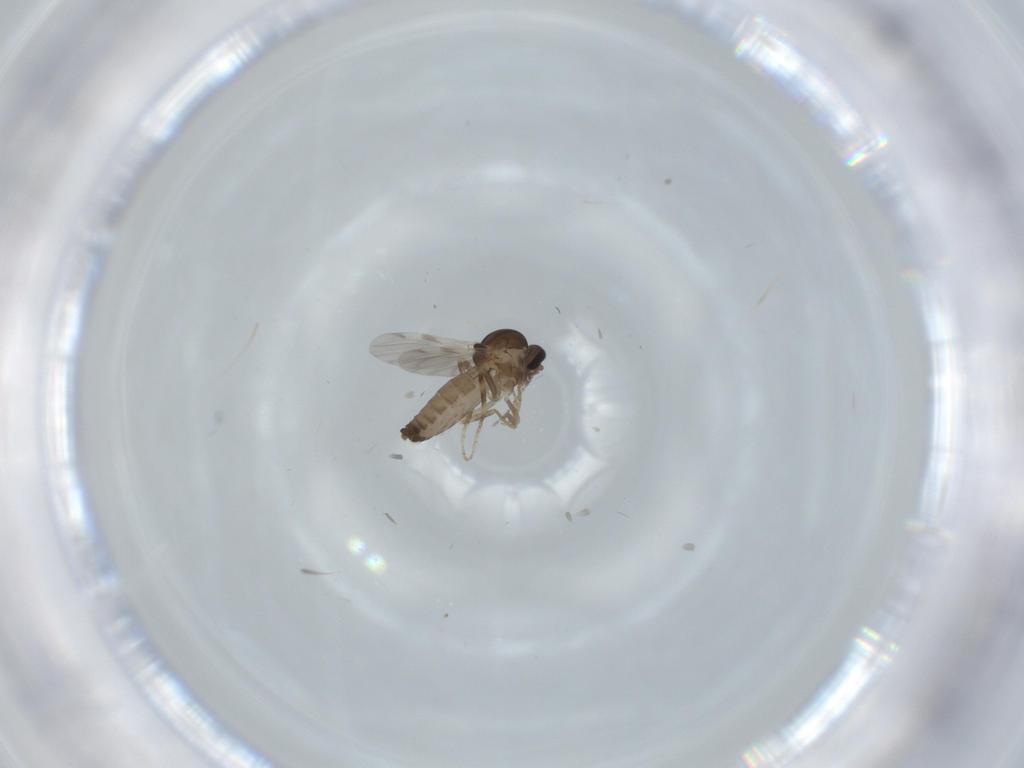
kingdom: Animalia
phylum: Arthropoda
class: Insecta
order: Diptera
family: Ceratopogonidae
